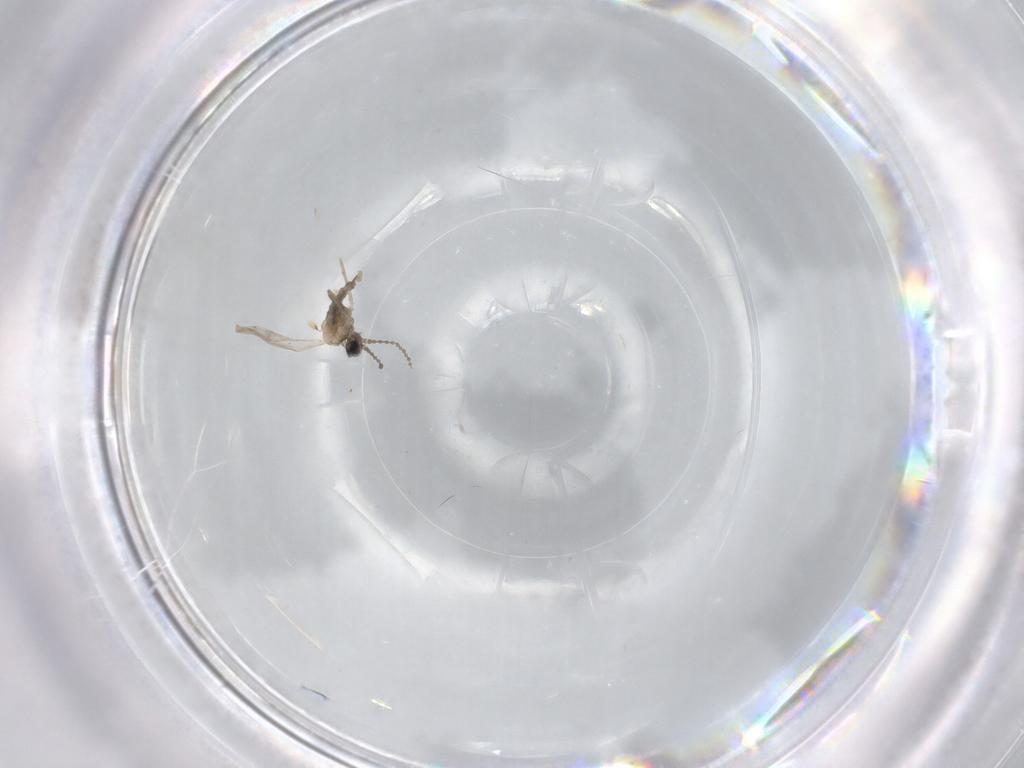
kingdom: Animalia
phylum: Arthropoda
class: Insecta
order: Diptera
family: Cecidomyiidae
